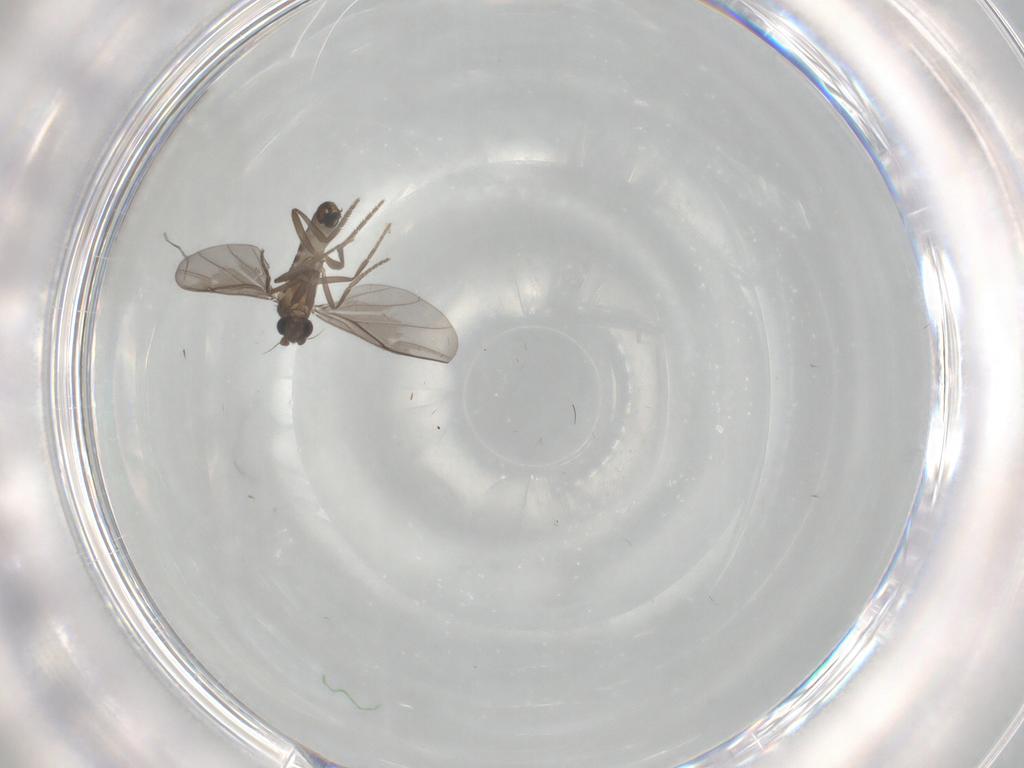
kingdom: Animalia
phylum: Arthropoda
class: Insecta
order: Diptera
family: Phoridae
